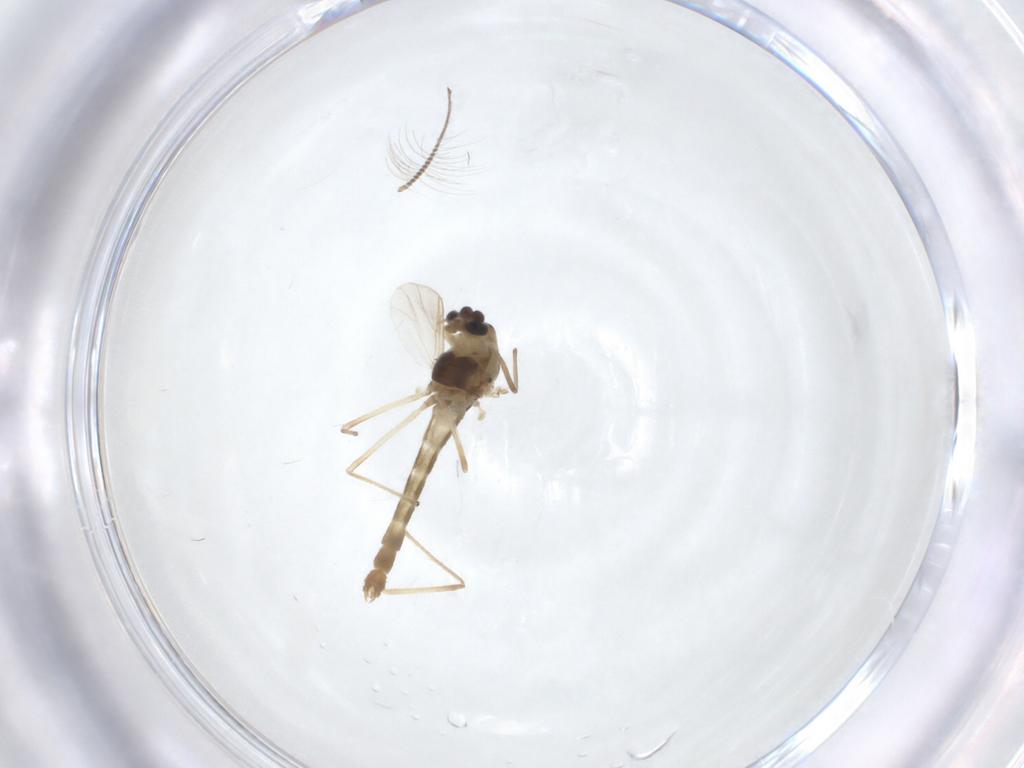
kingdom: Animalia
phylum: Arthropoda
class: Insecta
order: Diptera
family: Chironomidae
